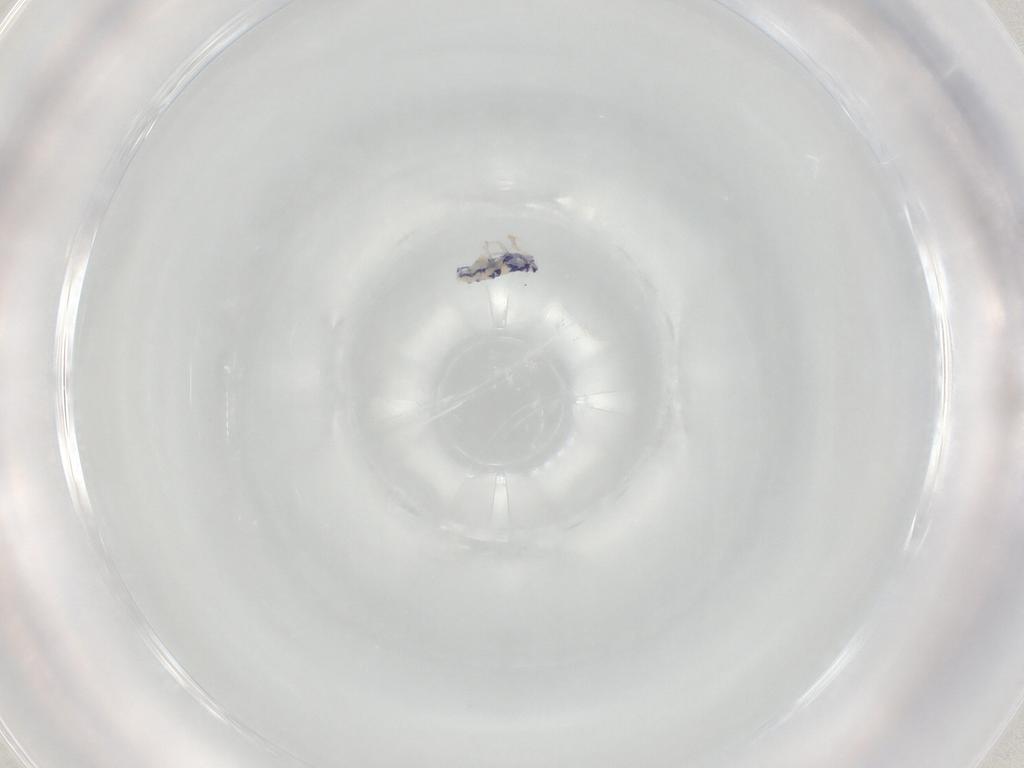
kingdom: Animalia
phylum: Arthropoda
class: Collembola
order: Entomobryomorpha
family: Entomobryidae
